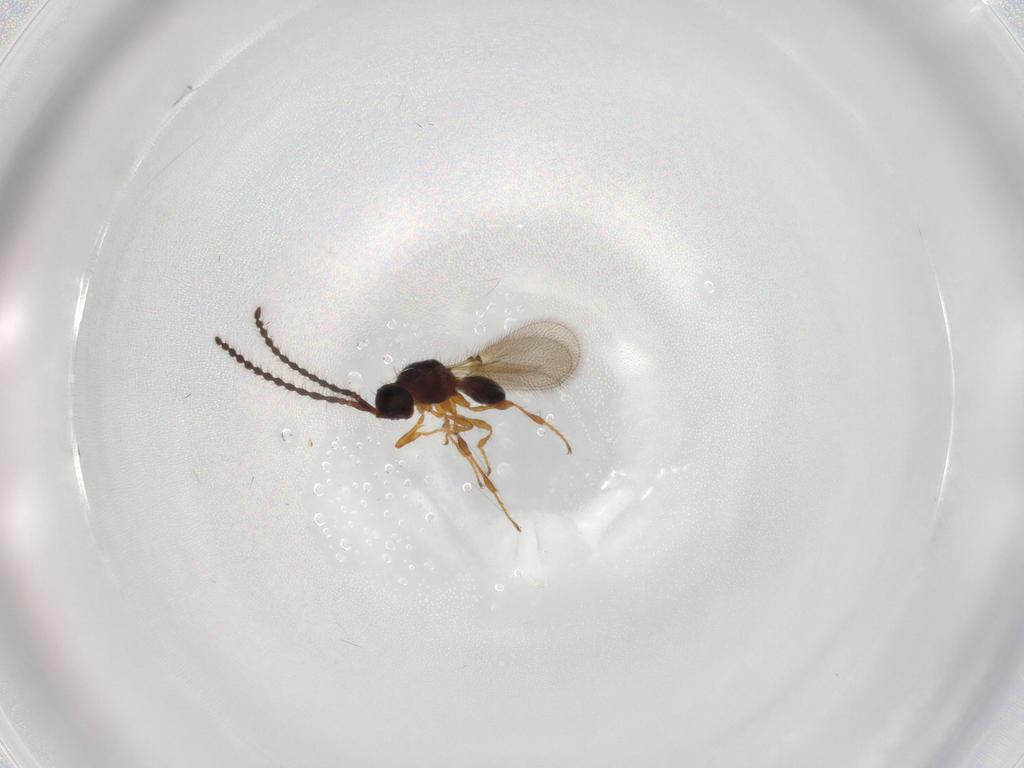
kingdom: Animalia
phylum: Arthropoda
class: Insecta
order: Hymenoptera
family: Diapriidae
